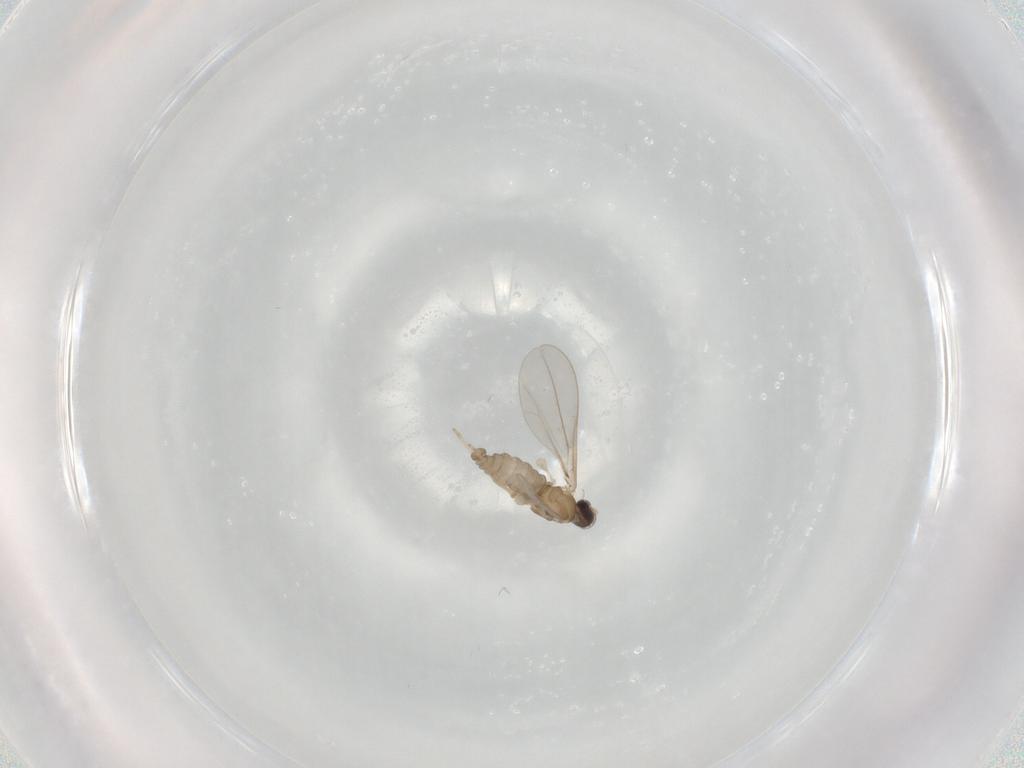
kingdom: Animalia
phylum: Arthropoda
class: Insecta
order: Diptera
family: Cecidomyiidae
